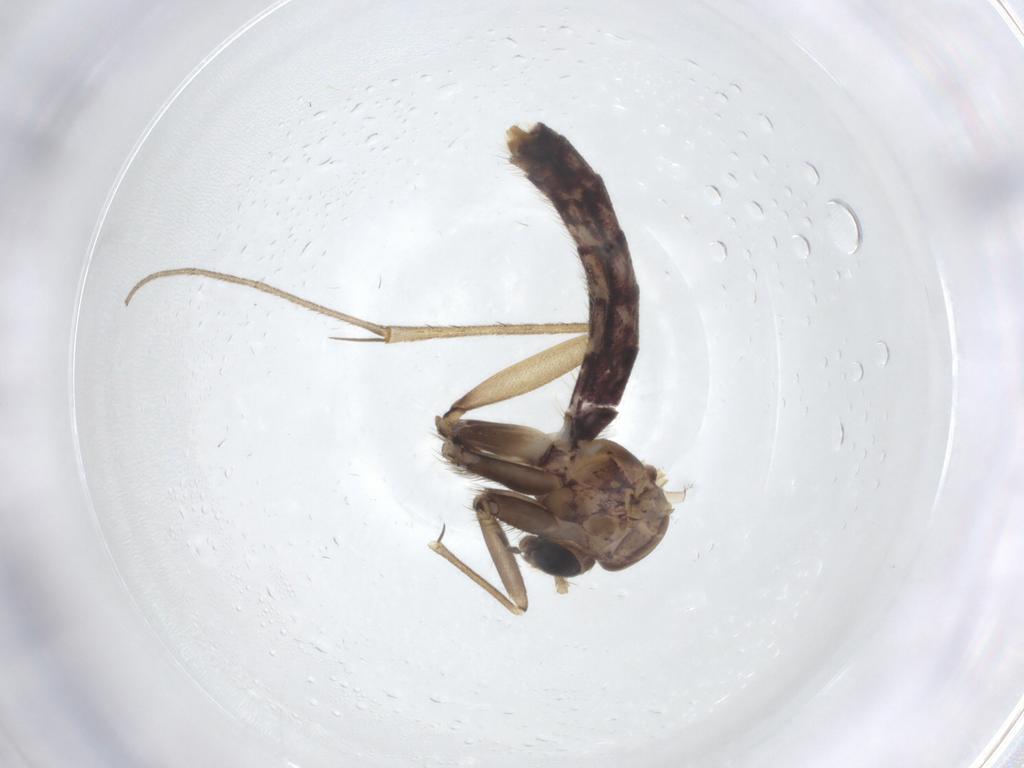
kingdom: Animalia
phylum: Arthropoda
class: Insecta
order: Diptera
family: Mycetophilidae
